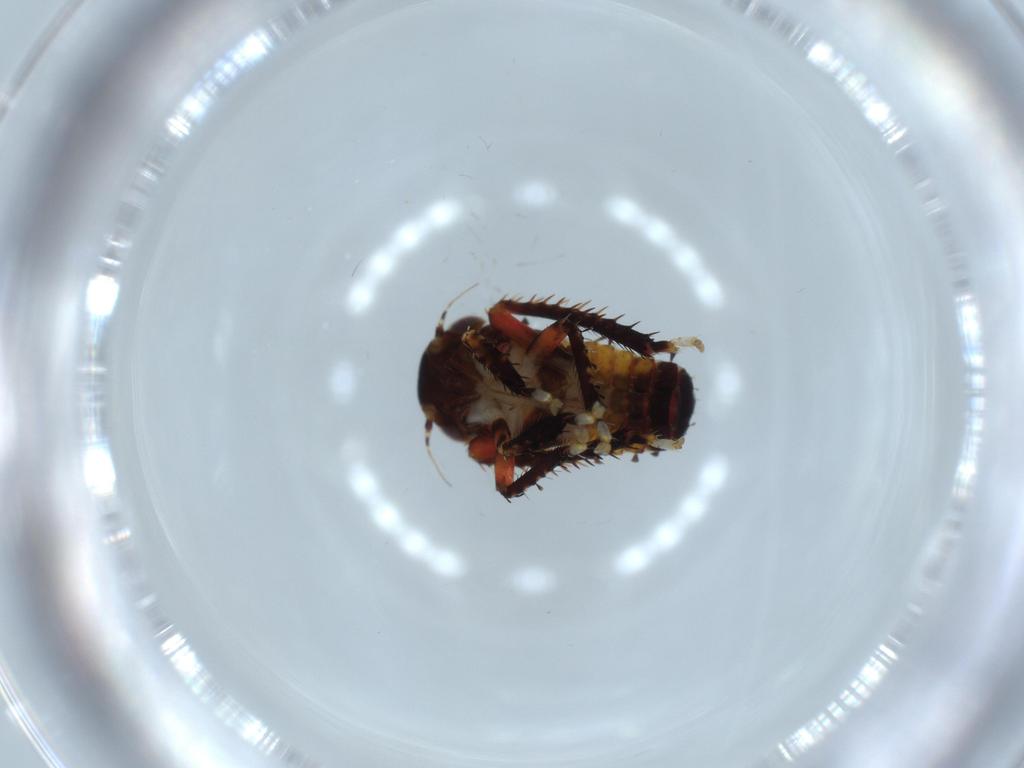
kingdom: Animalia
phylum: Arthropoda
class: Insecta
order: Hemiptera
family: Cicadellidae
